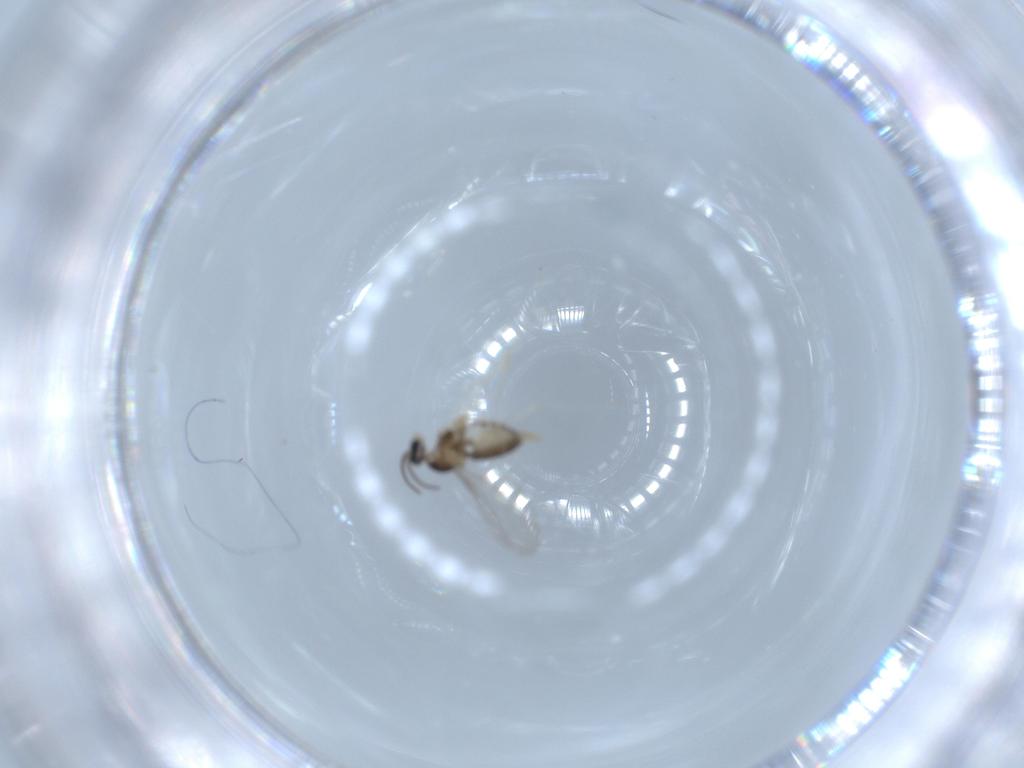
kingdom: Animalia
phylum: Arthropoda
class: Insecta
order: Diptera
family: Cecidomyiidae
